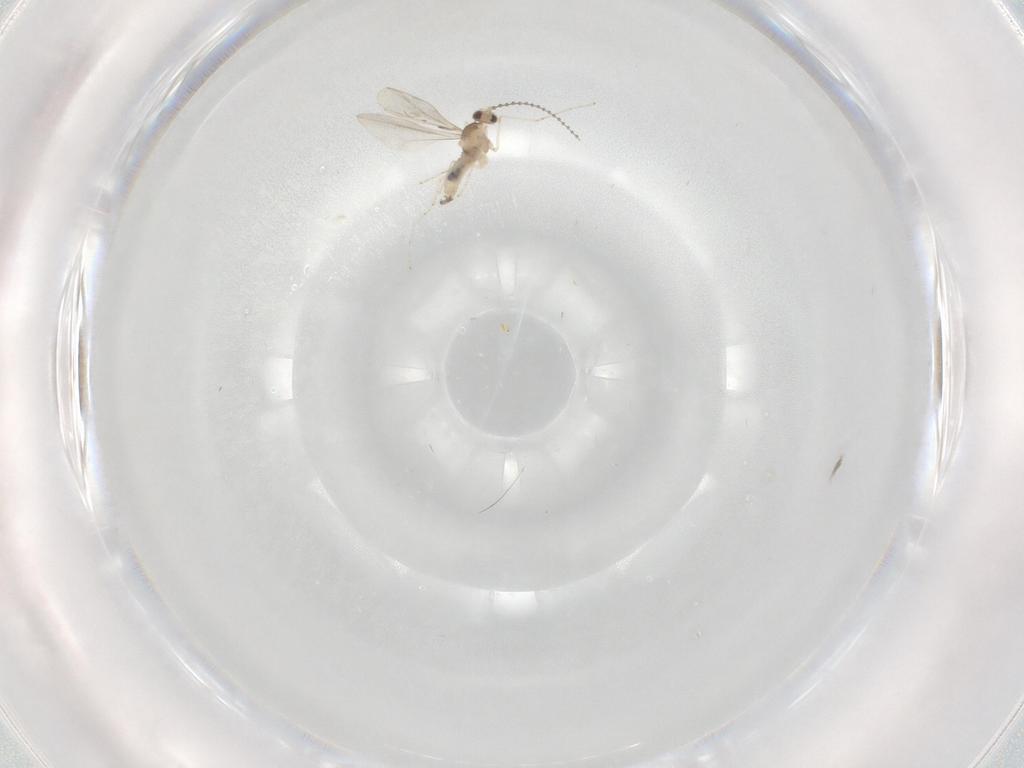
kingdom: Animalia
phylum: Arthropoda
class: Insecta
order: Diptera
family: Cecidomyiidae
